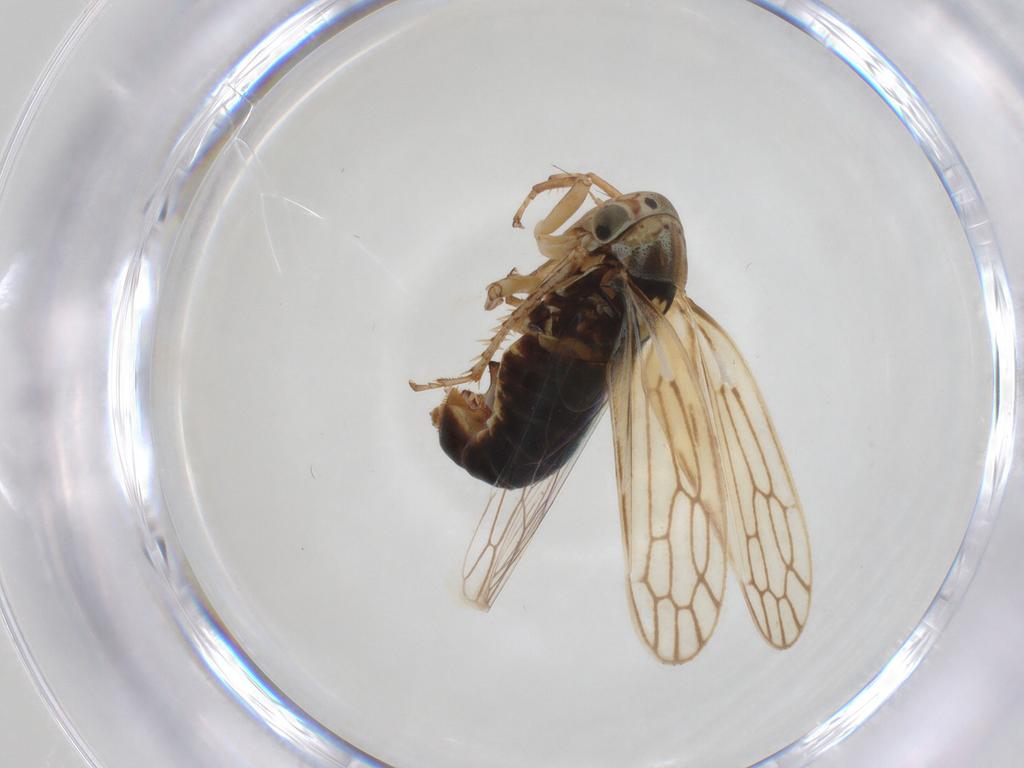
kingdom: Animalia
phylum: Arthropoda
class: Insecta
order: Hemiptera
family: Cicadellidae
